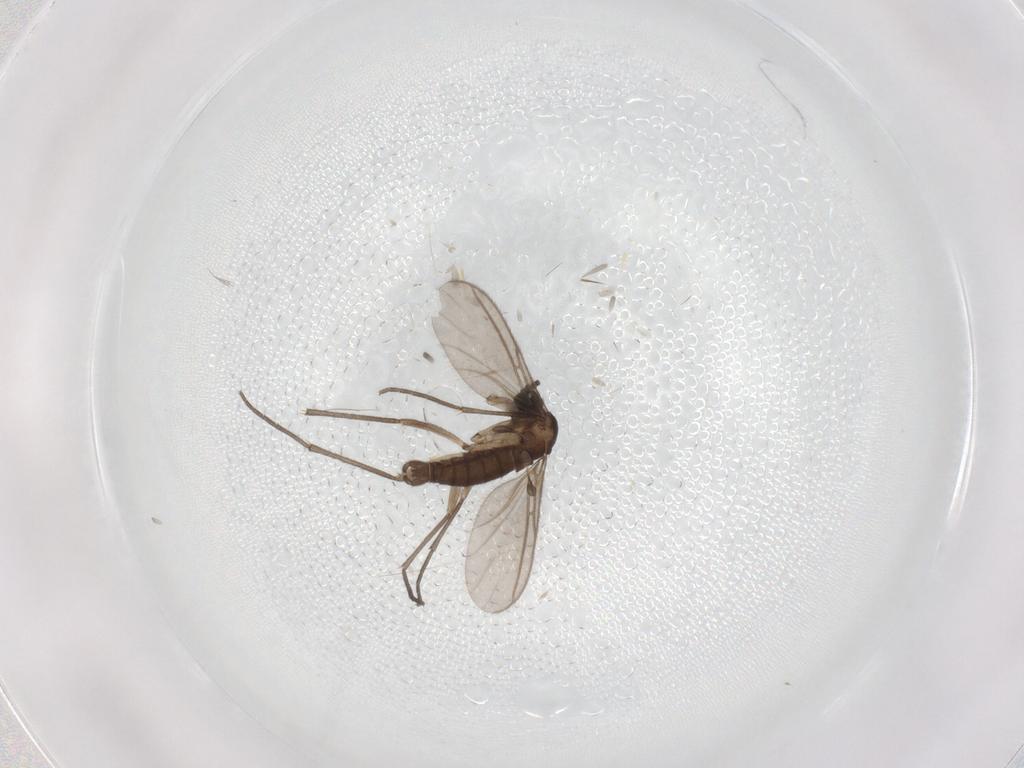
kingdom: Animalia
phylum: Arthropoda
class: Insecta
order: Diptera
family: Sciaridae
